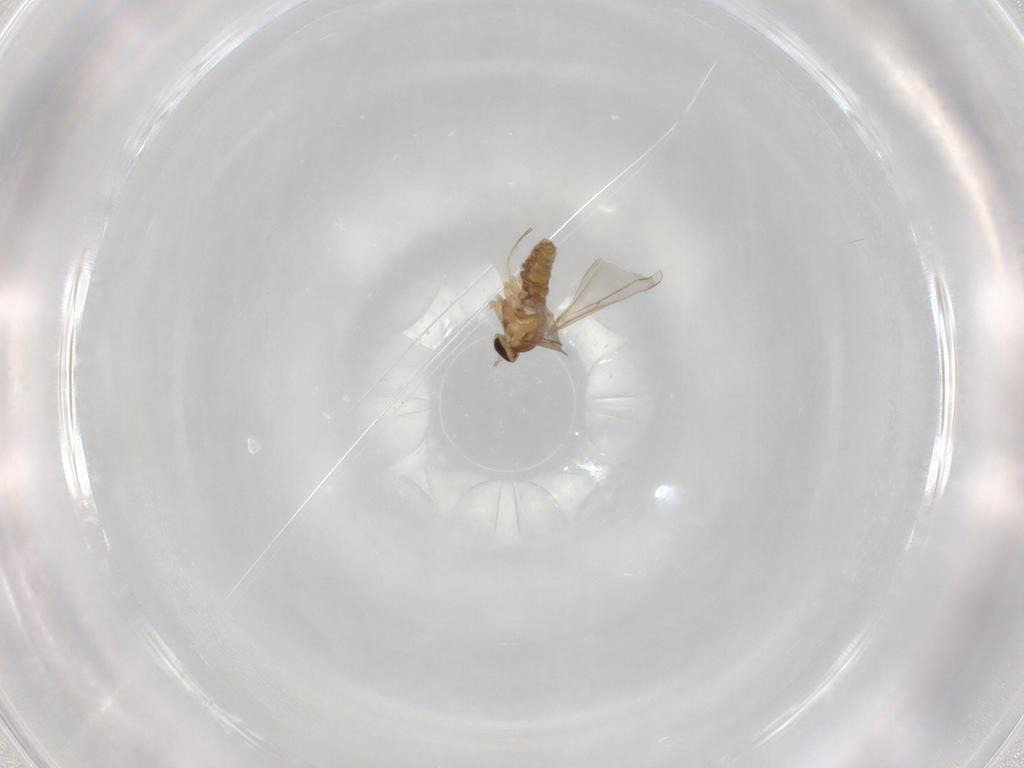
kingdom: Animalia
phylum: Arthropoda
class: Insecta
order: Diptera
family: Cecidomyiidae
